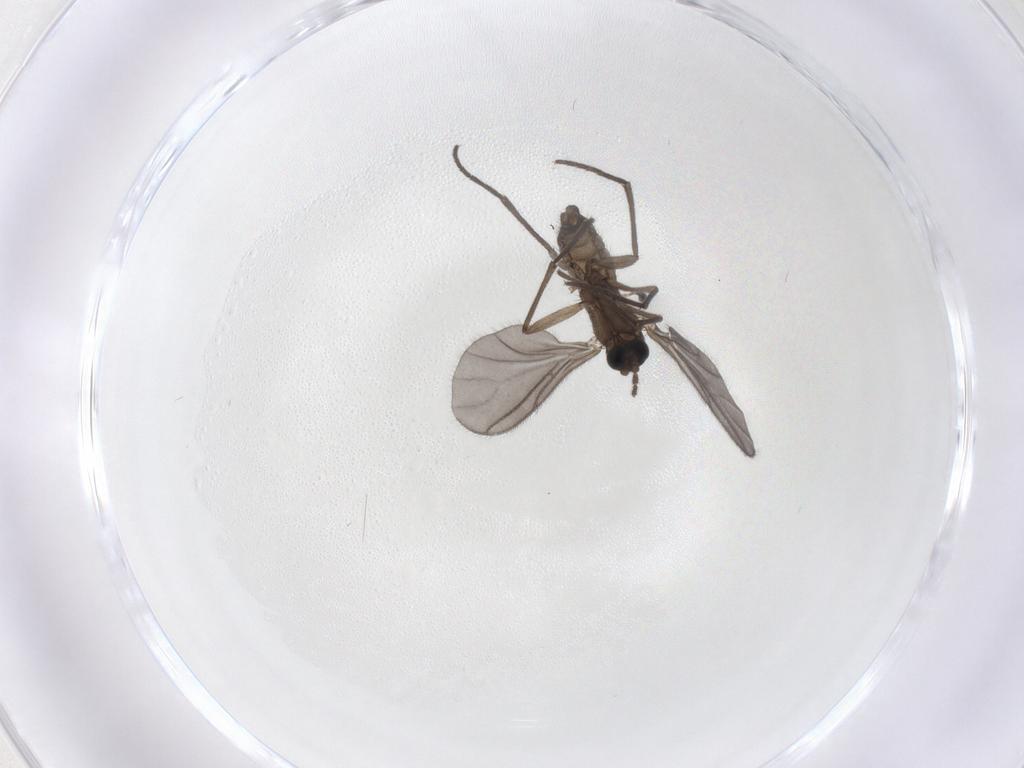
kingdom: Animalia
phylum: Arthropoda
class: Insecta
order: Diptera
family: Sciaridae
